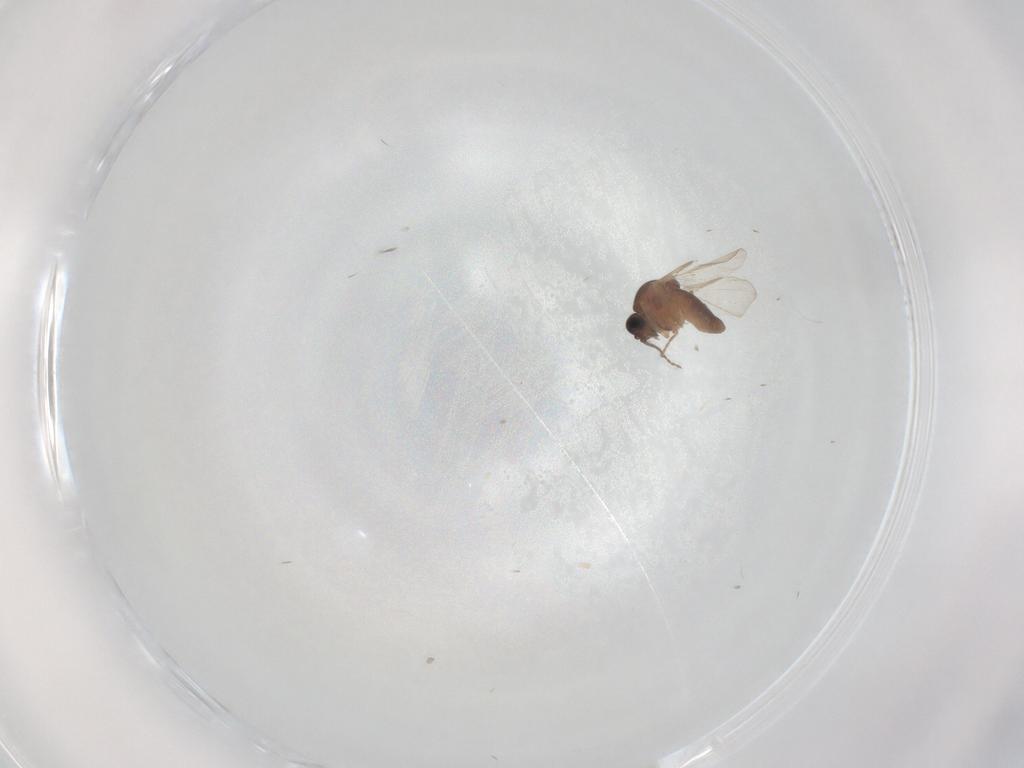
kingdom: Animalia
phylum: Arthropoda
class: Insecta
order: Diptera
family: Ceratopogonidae
